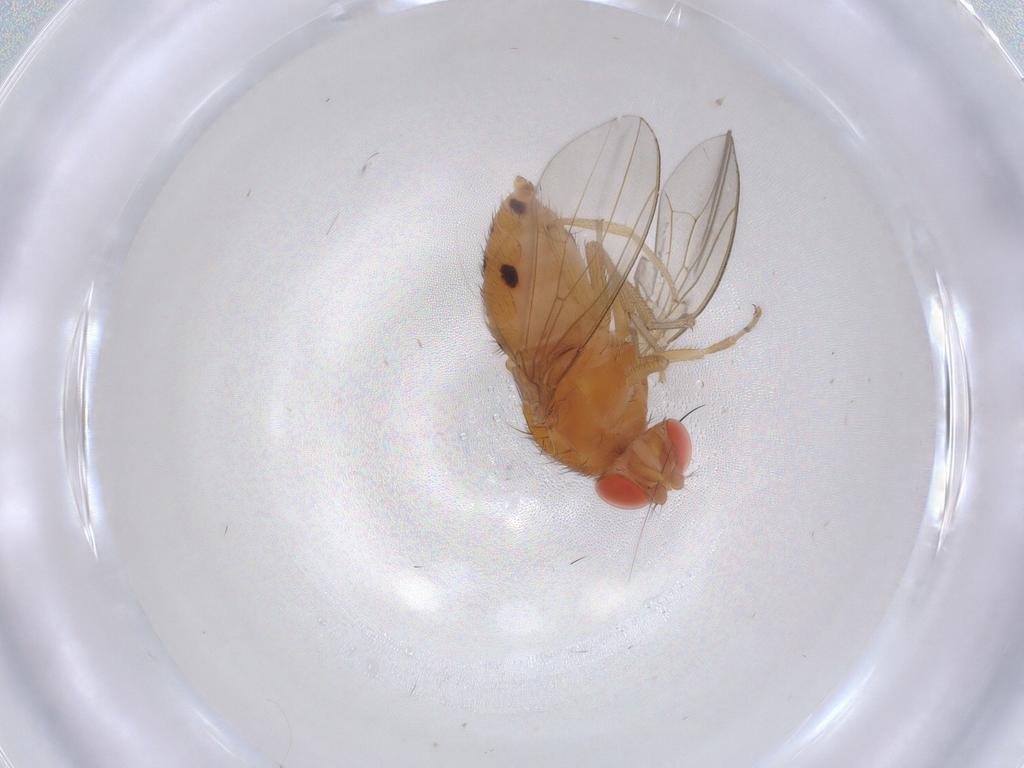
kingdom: Animalia
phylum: Arthropoda
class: Insecta
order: Diptera
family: Drosophilidae
